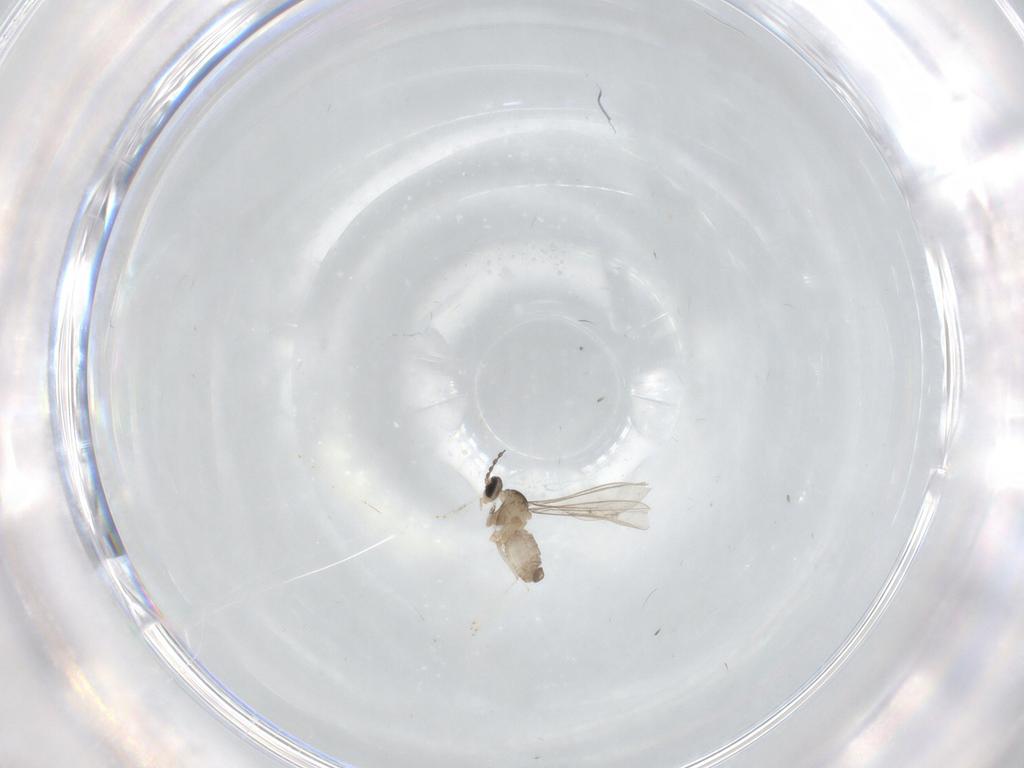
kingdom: Animalia
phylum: Arthropoda
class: Insecta
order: Diptera
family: Cecidomyiidae
